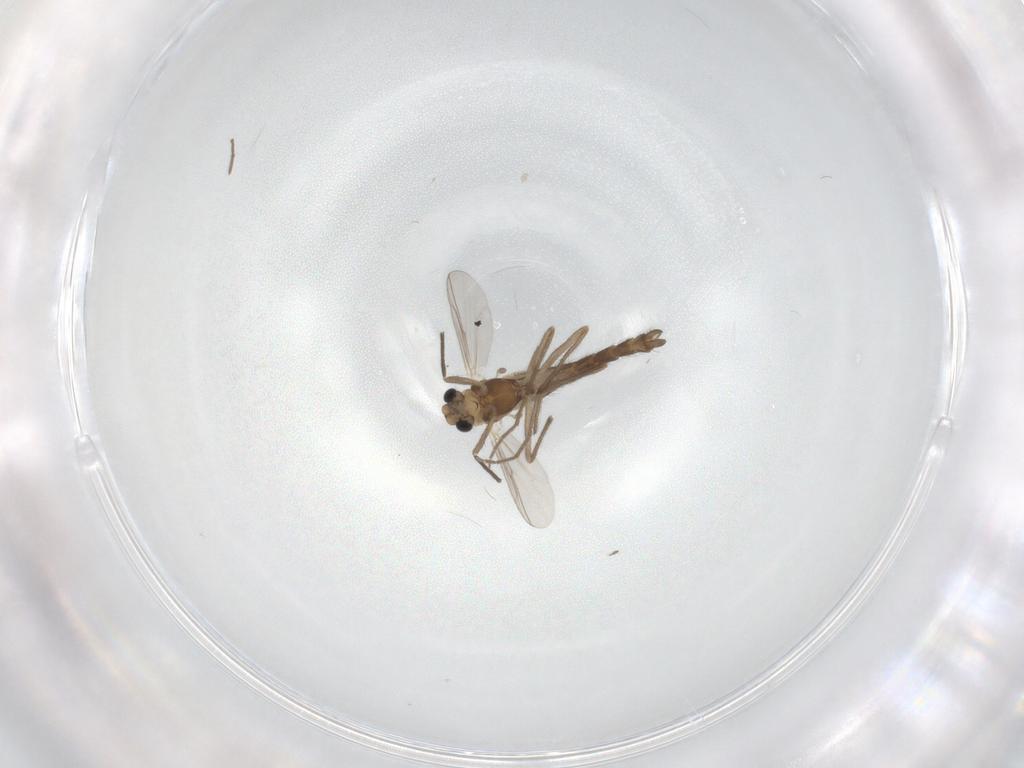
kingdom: Animalia
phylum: Arthropoda
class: Insecta
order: Diptera
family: Chironomidae
